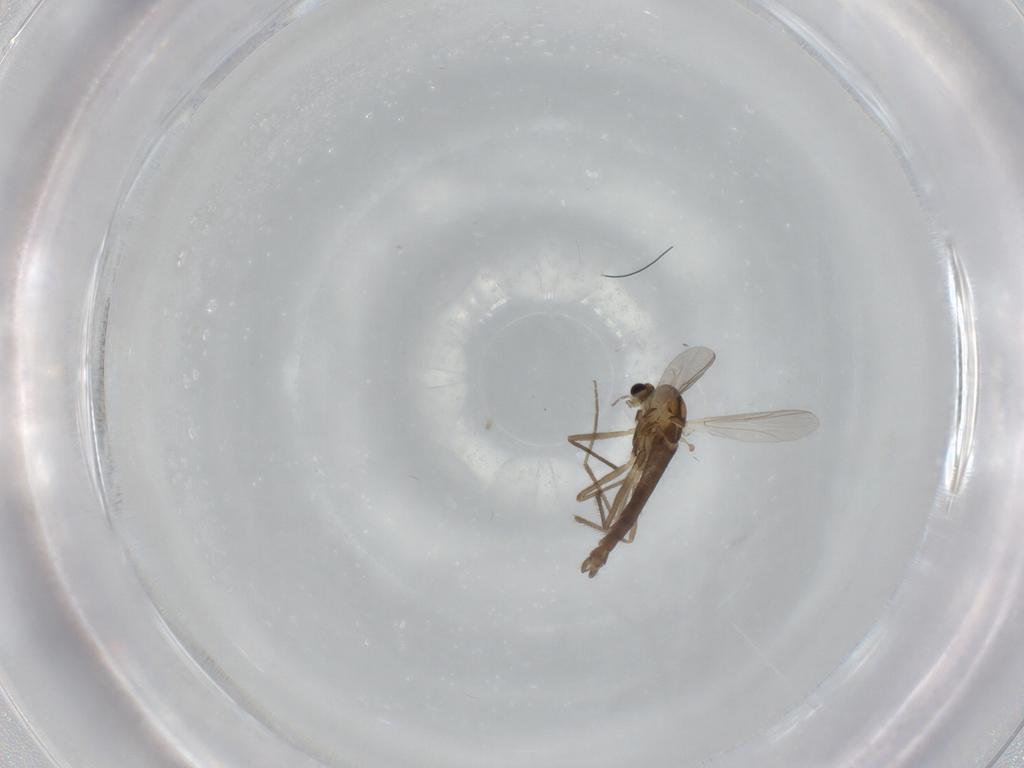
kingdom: Animalia
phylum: Arthropoda
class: Insecta
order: Diptera
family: Chironomidae
